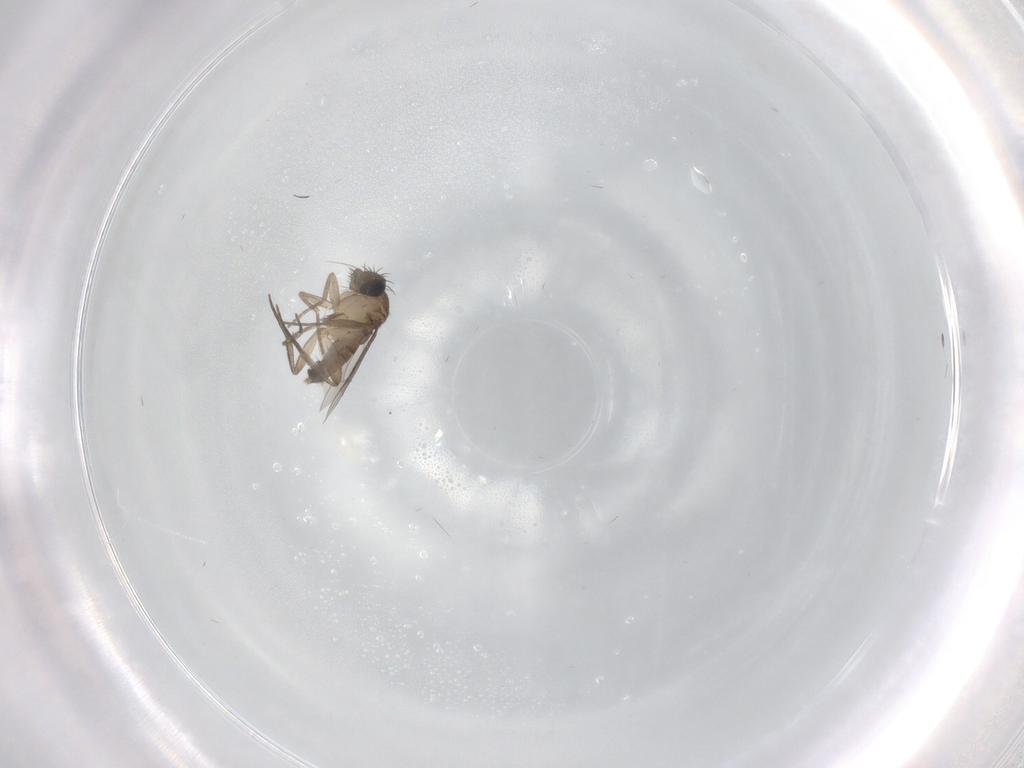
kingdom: Animalia
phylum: Arthropoda
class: Insecta
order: Diptera
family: Phoridae
